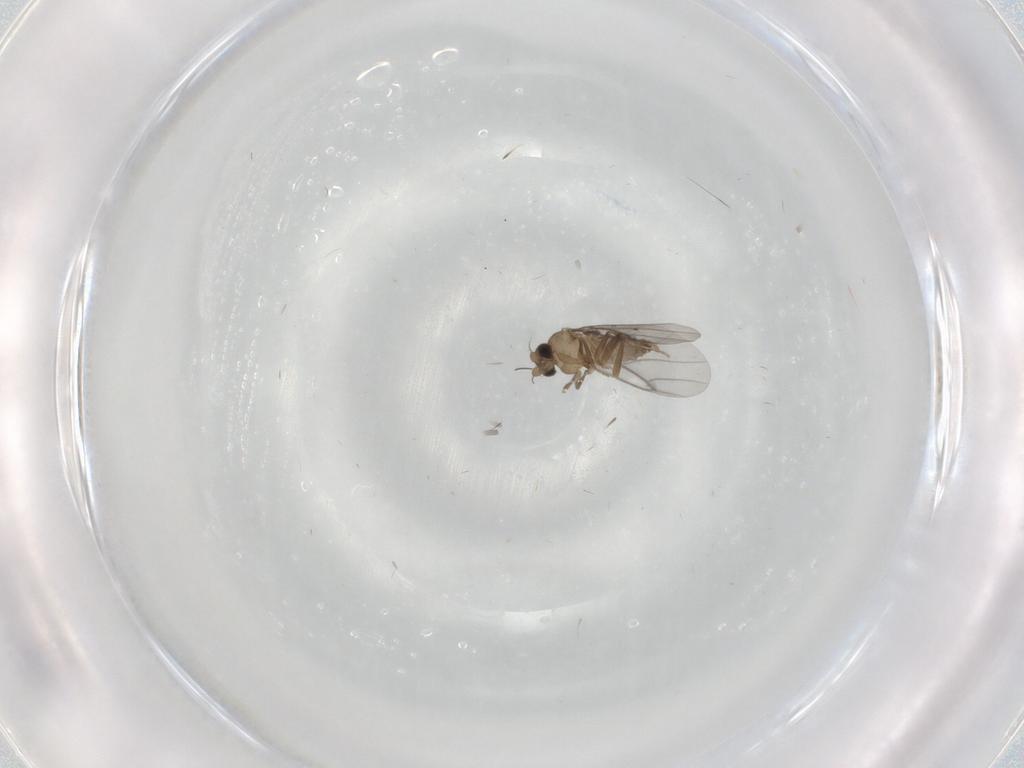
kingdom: Animalia
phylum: Arthropoda
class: Insecta
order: Diptera
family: Dolichopodidae
